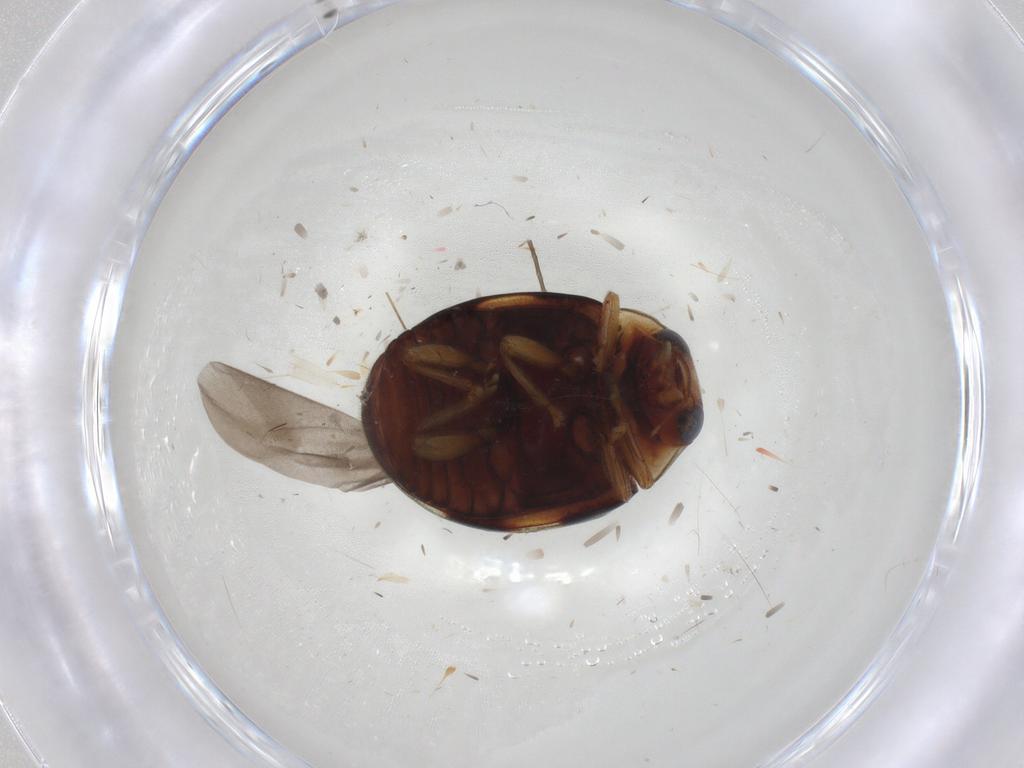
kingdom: Animalia
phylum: Arthropoda
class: Insecta
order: Coleoptera
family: Coccinellidae
